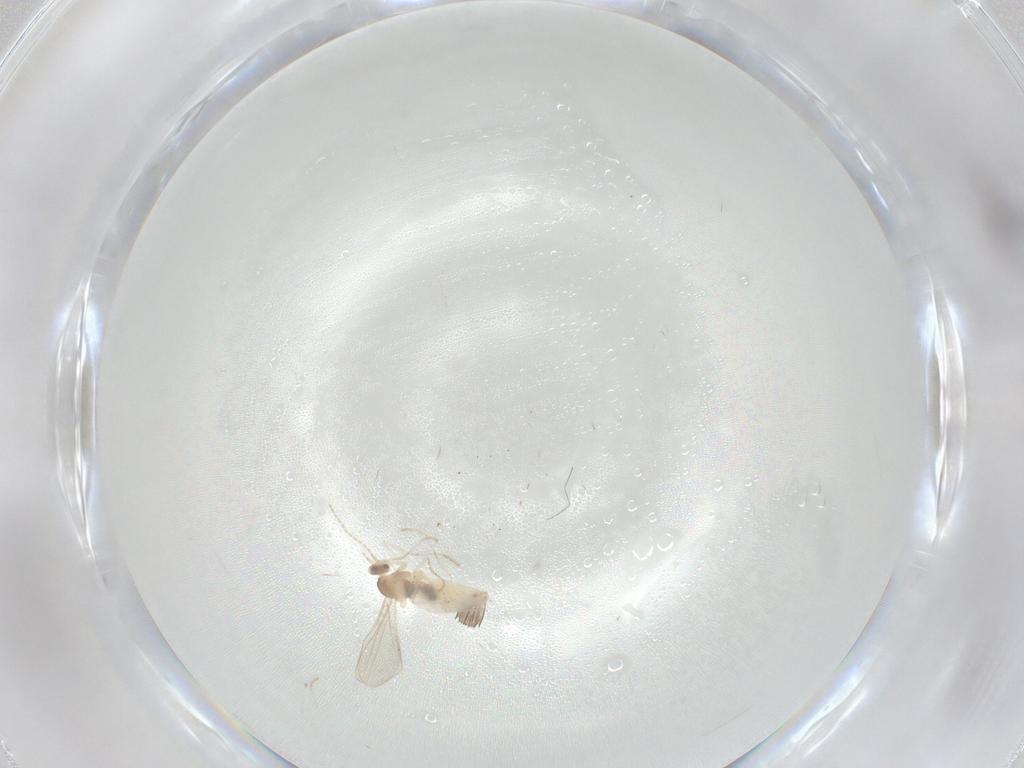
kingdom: Animalia
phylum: Arthropoda
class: Insecta
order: Diptera
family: Cecidomyiidae
